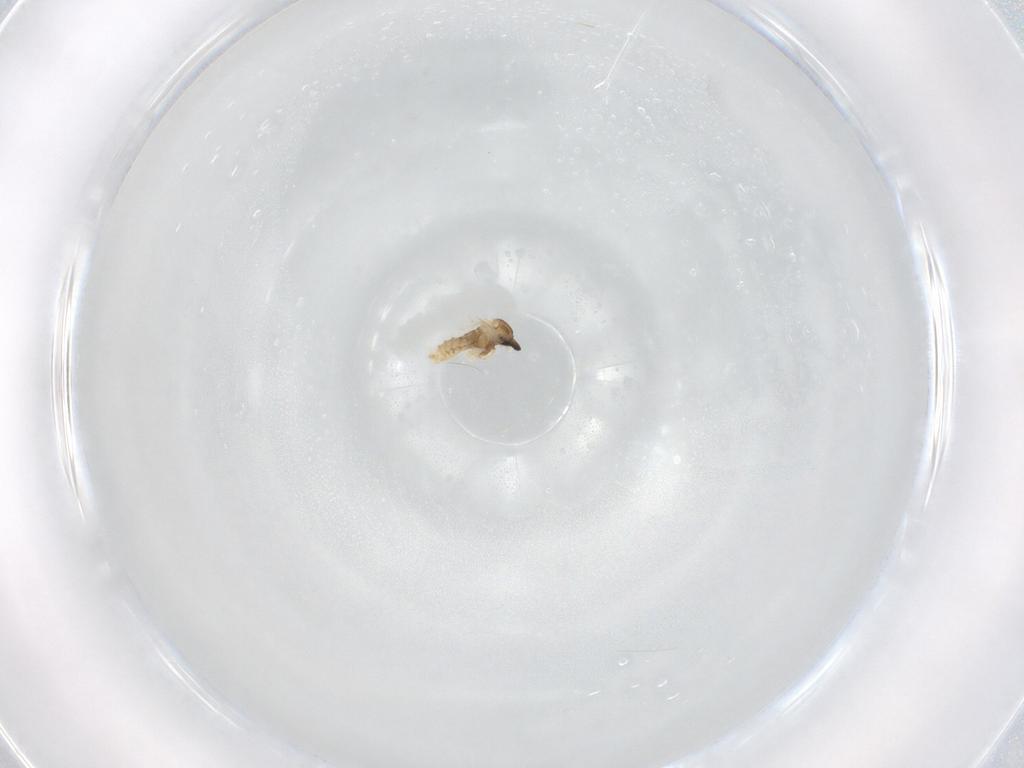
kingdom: Animalia
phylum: Arthropoda
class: Insecta
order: Diptera
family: Cecidomyiidae
